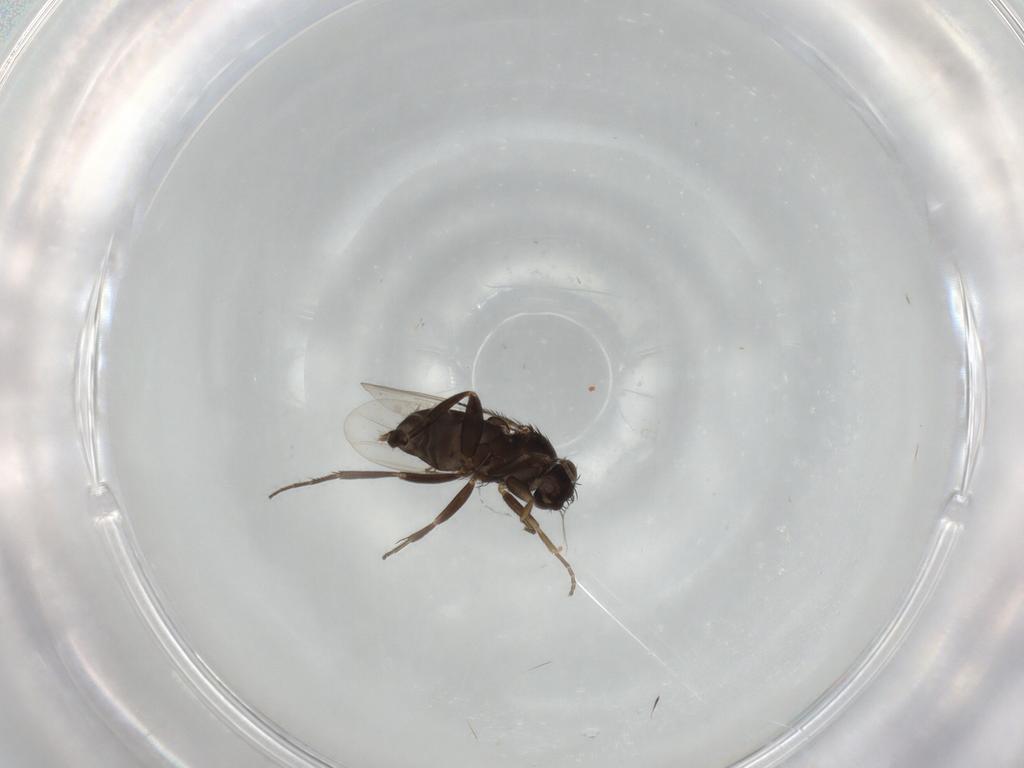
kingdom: Animalia
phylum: Arthropoda
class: Insecta
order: Diptera
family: Phoridae
